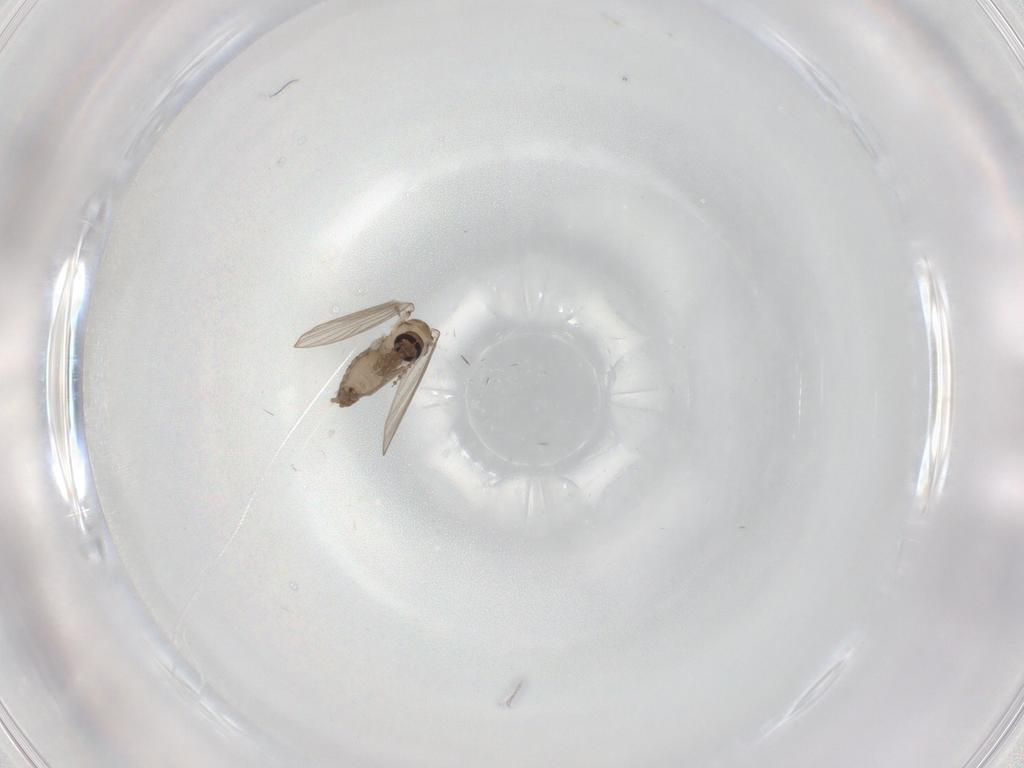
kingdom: Animalia
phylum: Arthropoda
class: Insecta
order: Diptera
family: Psychodidae
